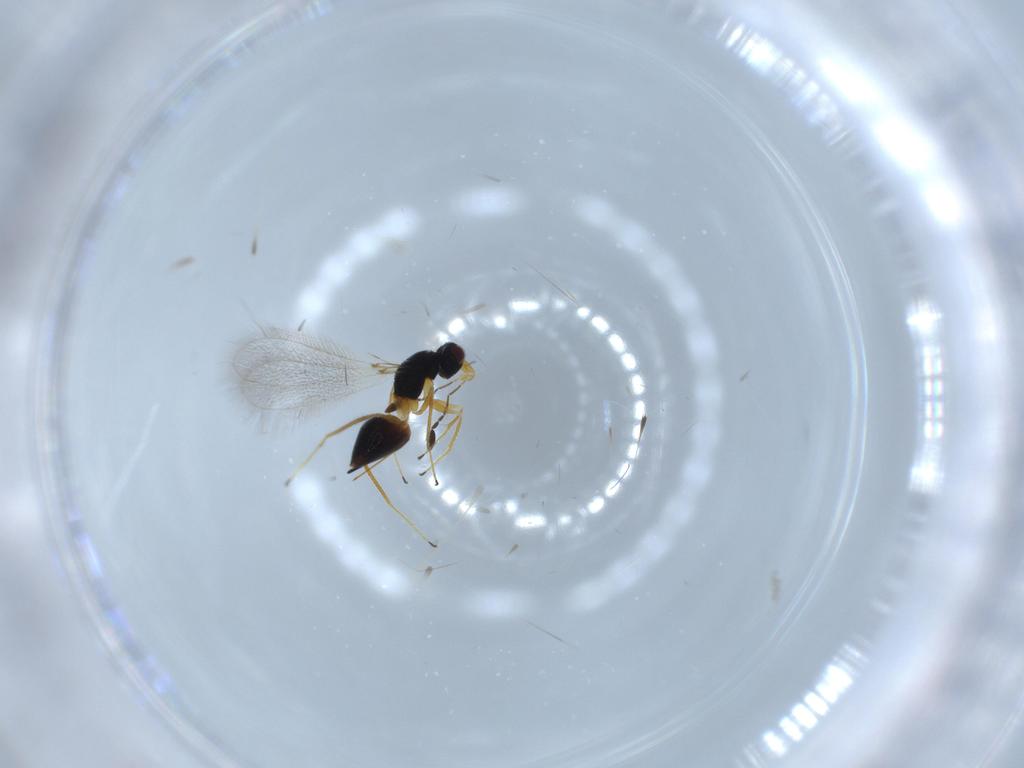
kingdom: Animalia
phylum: Arthropoda
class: Insecta
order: Hymenoptera
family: Mymaridae
